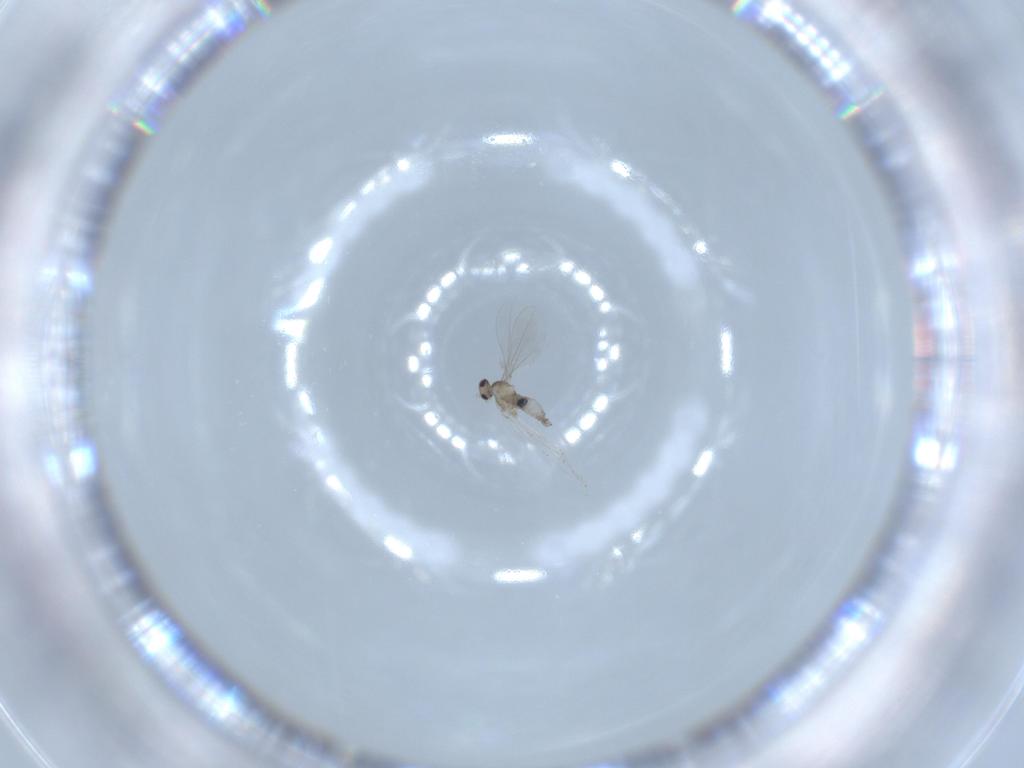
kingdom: Animalia
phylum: Arthropoda
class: Insecta
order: Diptera
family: Cecidomyiidae
